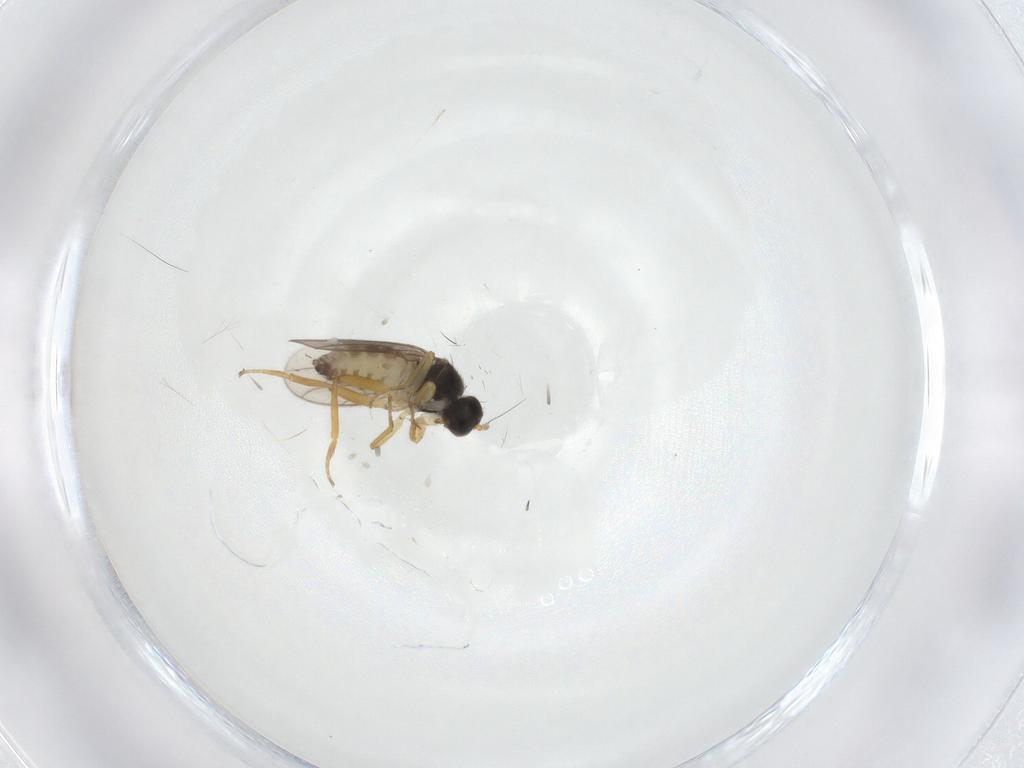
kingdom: Animalia
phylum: Arthropoda
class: Insecta
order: Diptera
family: Hybotidae
